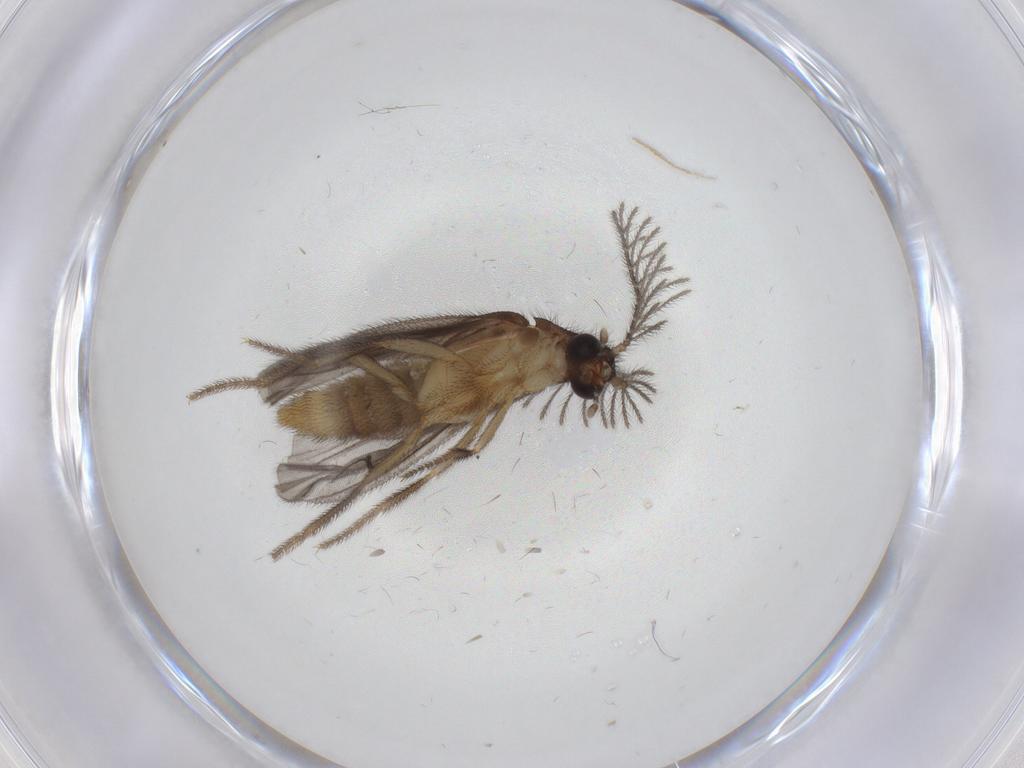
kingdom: Animalia
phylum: Arthropoda
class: Insecta
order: Coleoptera
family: Phengodidae
